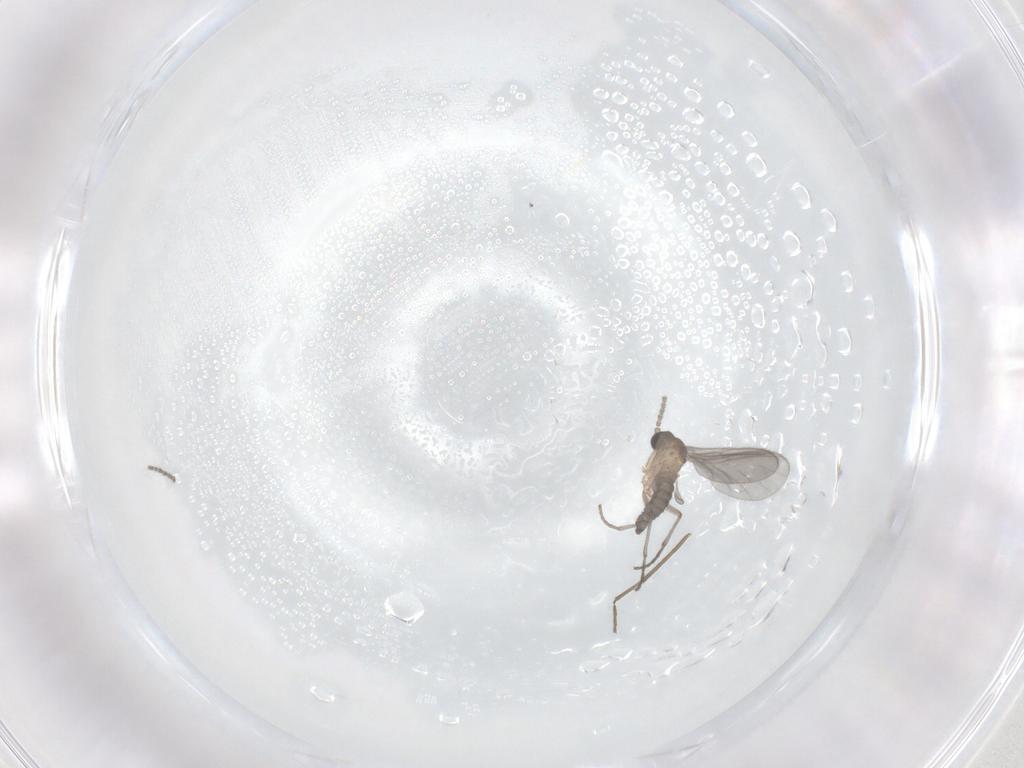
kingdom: Animalia
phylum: Arthropoda
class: Insecta
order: Diptera
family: Sciaridae
